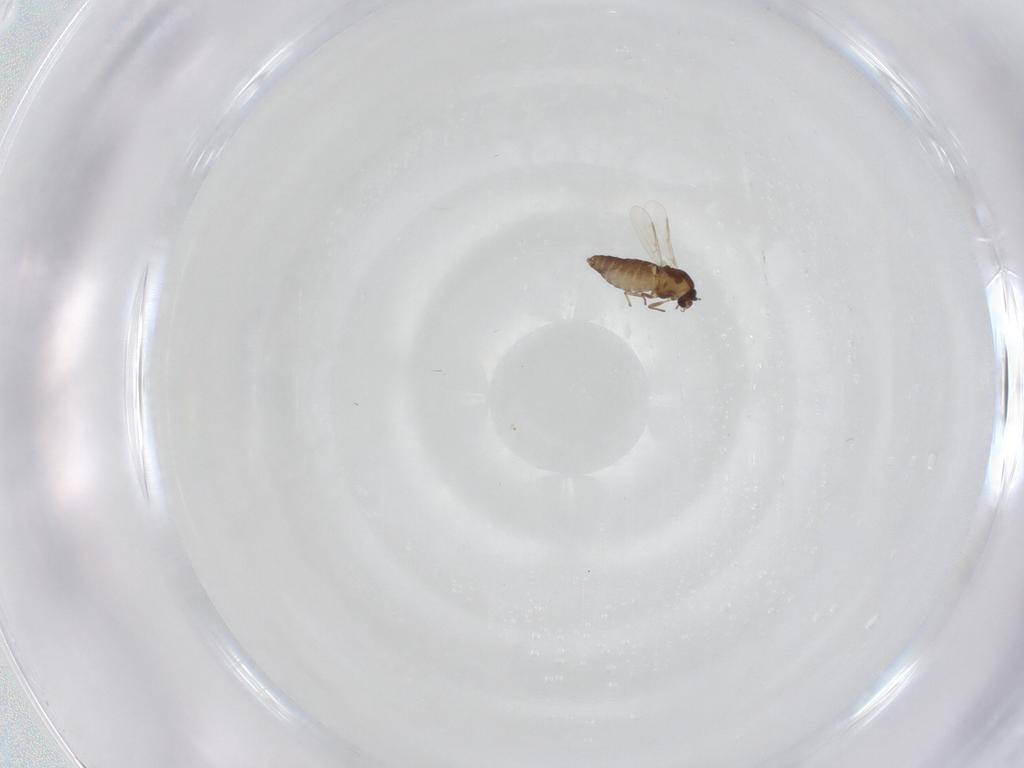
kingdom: Animalia
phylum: Arthropoda
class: Insecta
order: Diptera
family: Chironomidae
